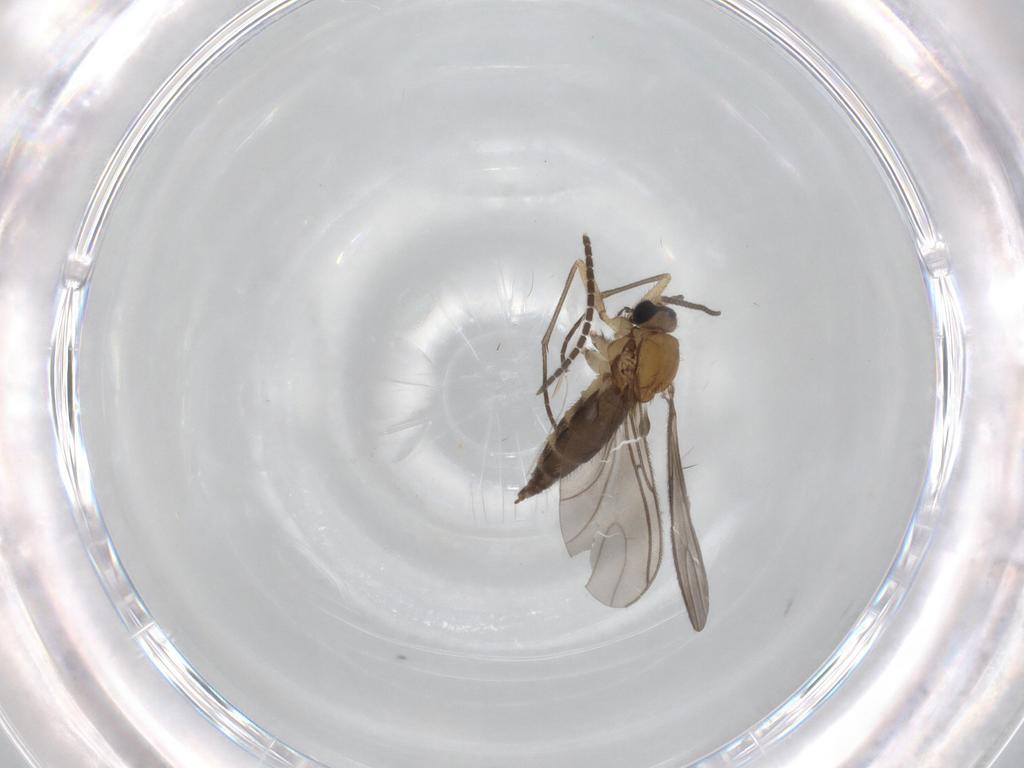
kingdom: Animalia
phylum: Arthropoda
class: Insecta
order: Diptera
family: Sciaridae
